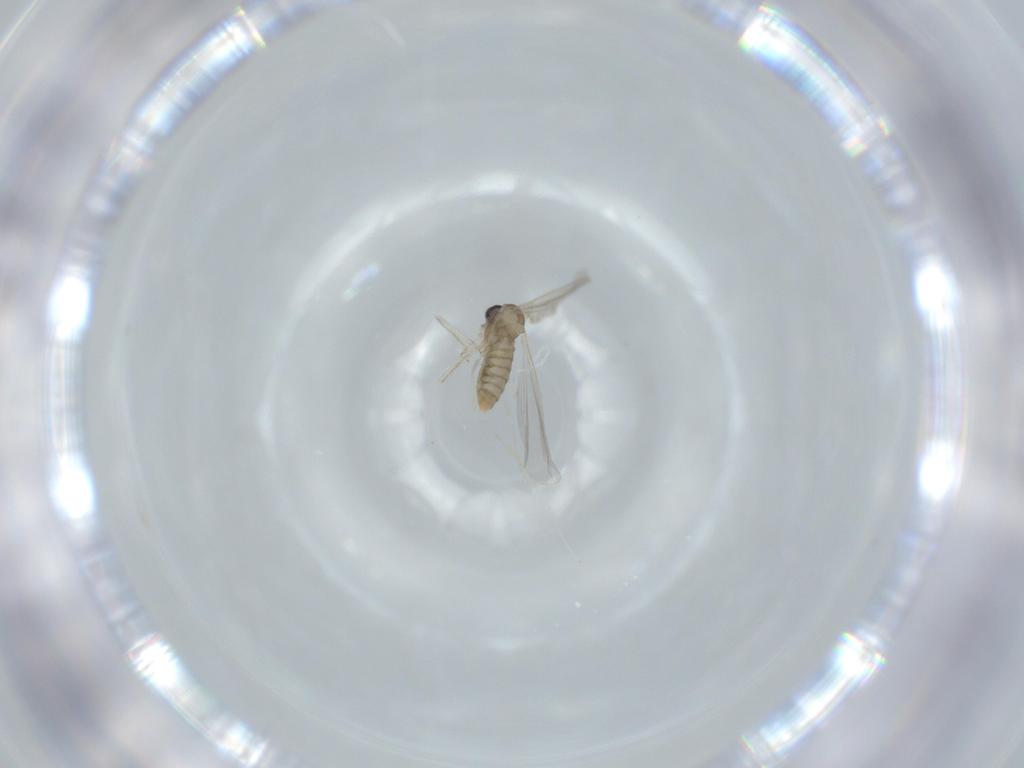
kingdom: Animalia
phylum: Arthropoda
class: Insecta
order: Diptera
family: Cecidomyiidae
